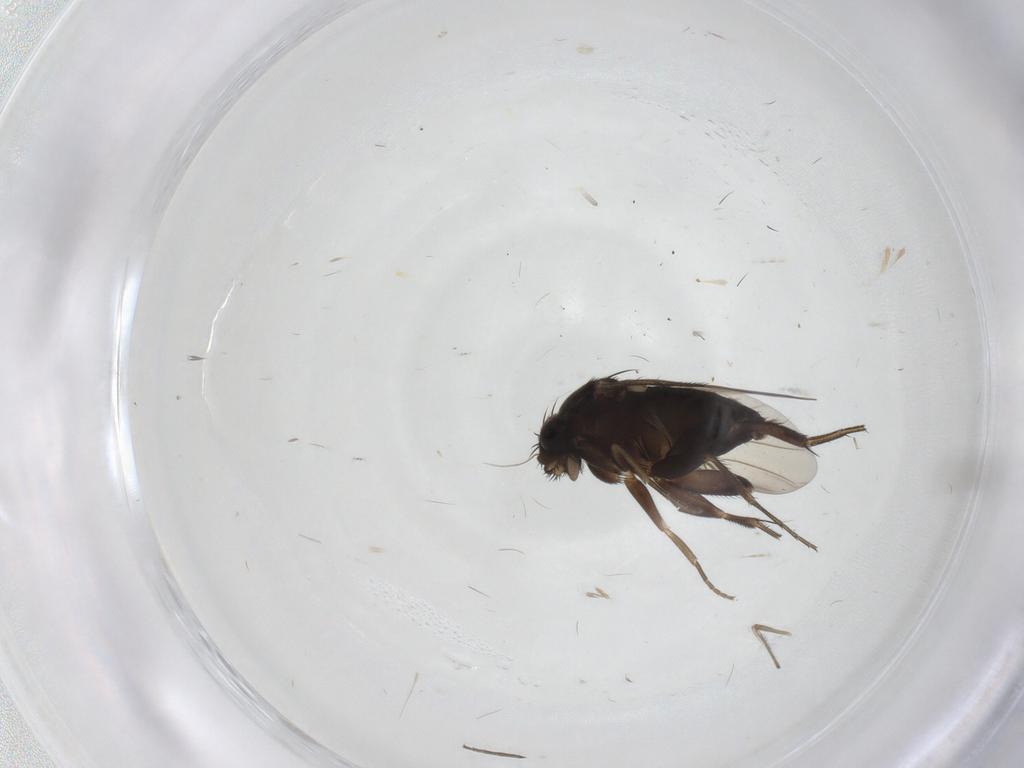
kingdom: Animalia
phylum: Arthropoda
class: Insecta
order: Diptera
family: Phoridae
